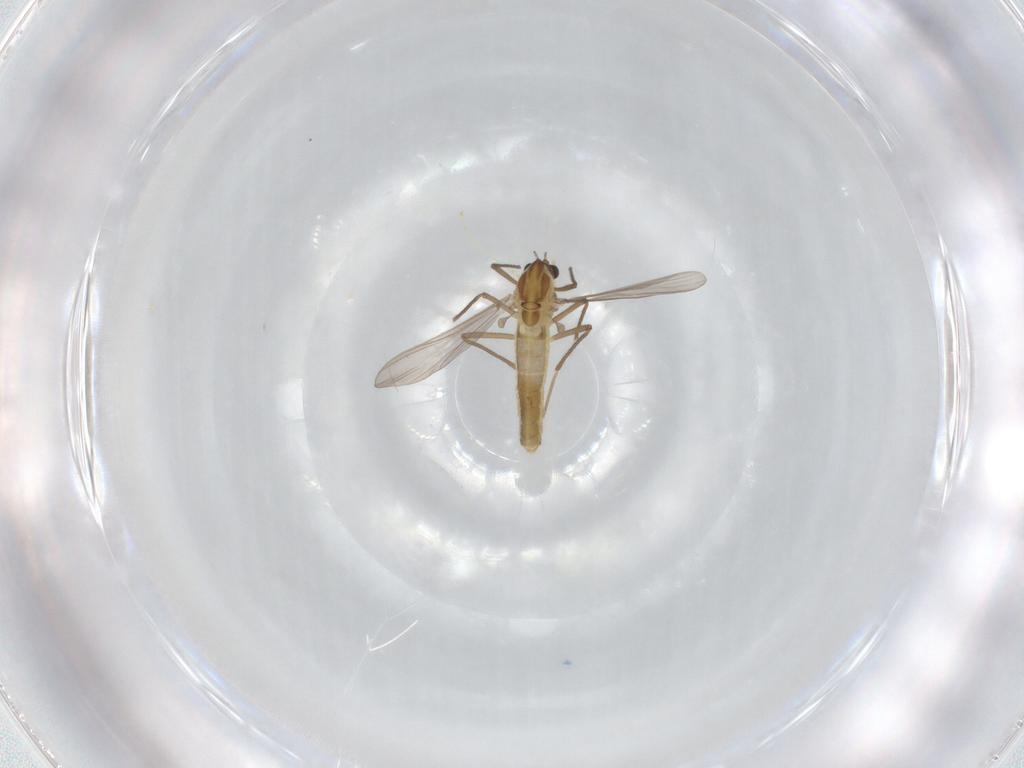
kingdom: Animalia
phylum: Arthropoda
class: Insecta
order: Diptera
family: Chironomidae
